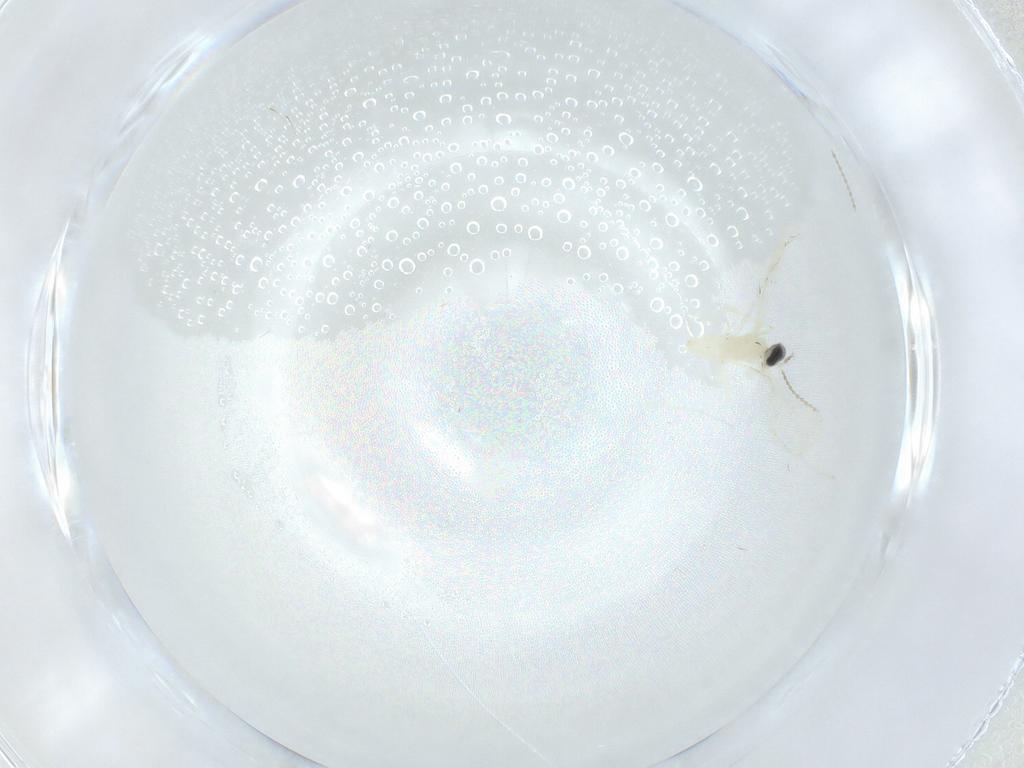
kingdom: Animalia
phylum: Arthropoda
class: Insecta
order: Diptera
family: Cecidomyiidae
